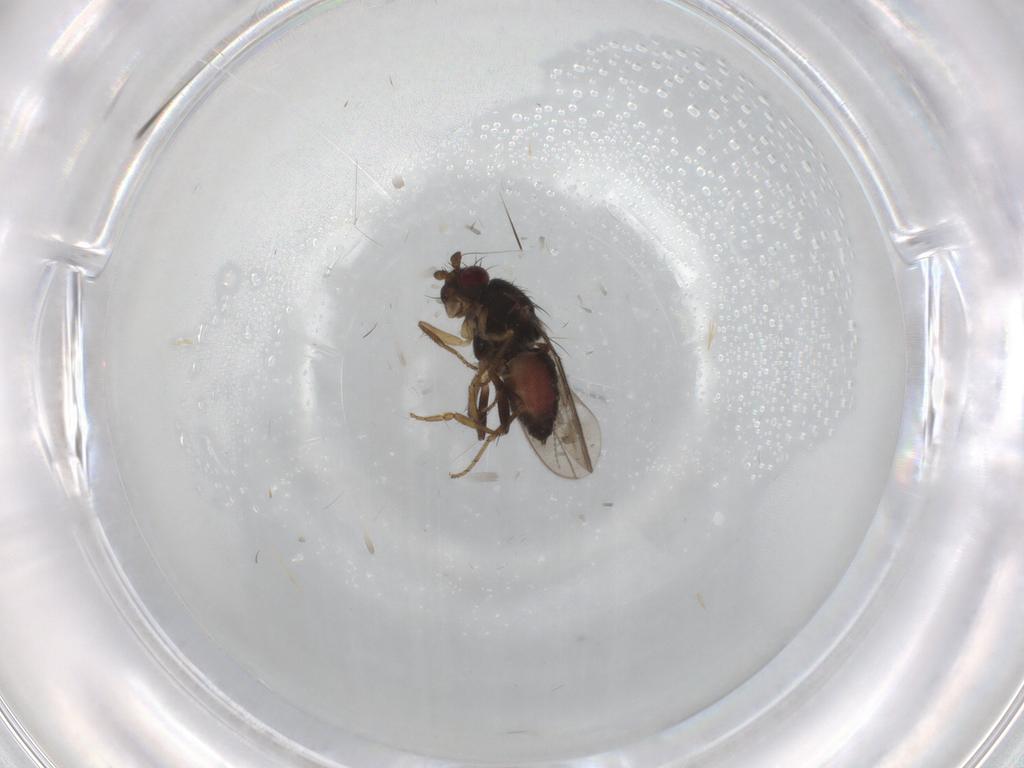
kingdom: Animalia
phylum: Arthropoda
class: Insecta
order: Diptera
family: Sphaeroceridae
